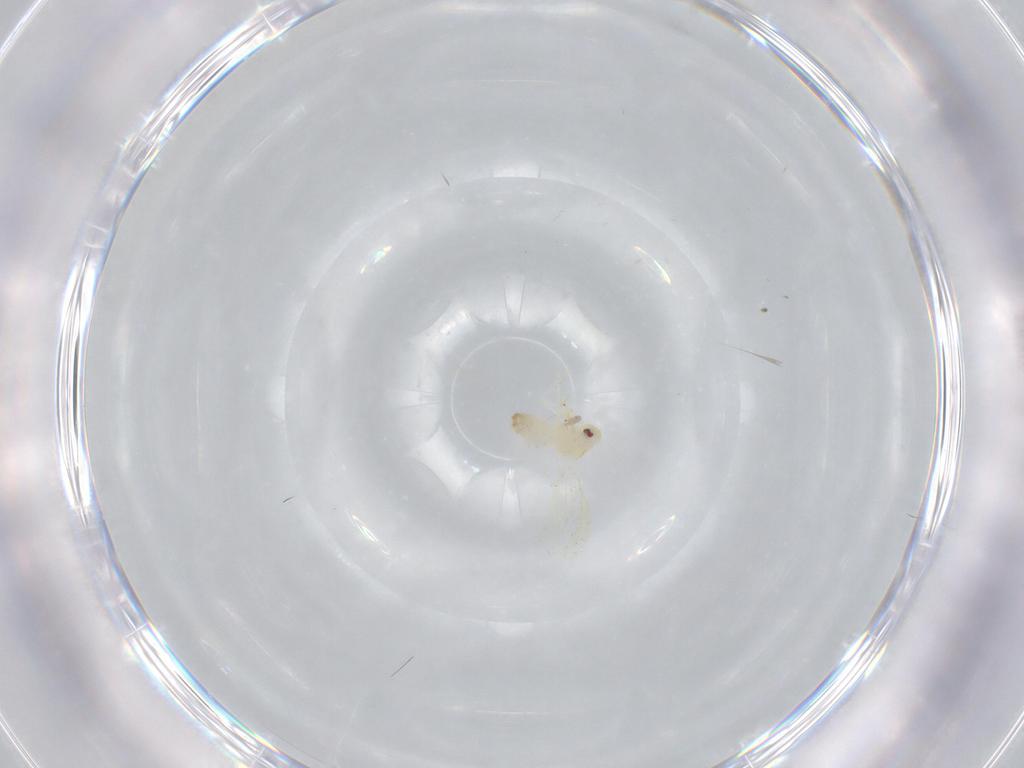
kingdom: Animalia
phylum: Arthropoda
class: Insecta
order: Hemiptera
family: Aleyrodidae
